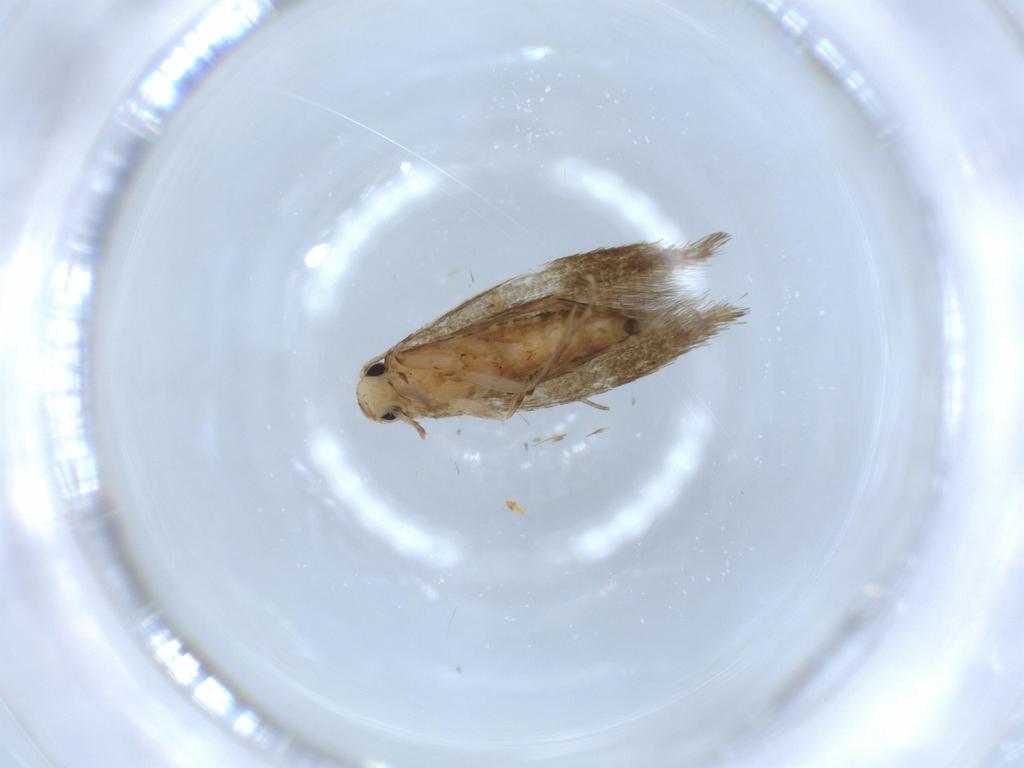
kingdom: Animalia
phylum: Arthropoda
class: Insecta
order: Lepidoptera
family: Tineidae
